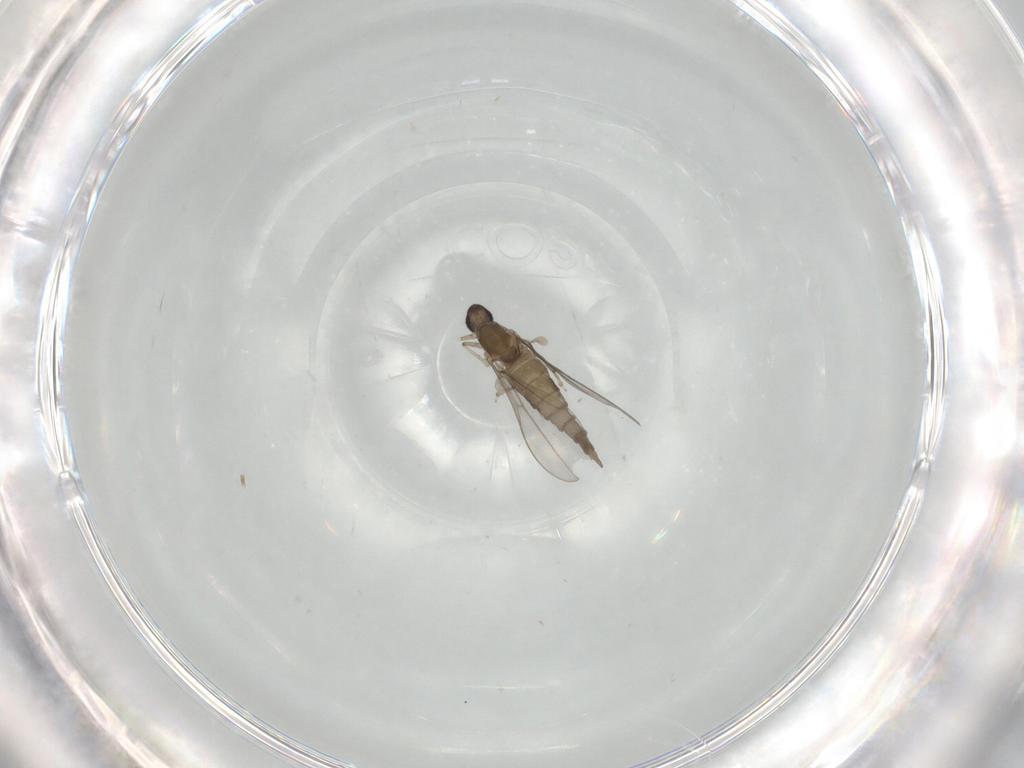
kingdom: Animalia
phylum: Arthropoda
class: Insecta
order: Diptera
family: Cecidomyiidae
